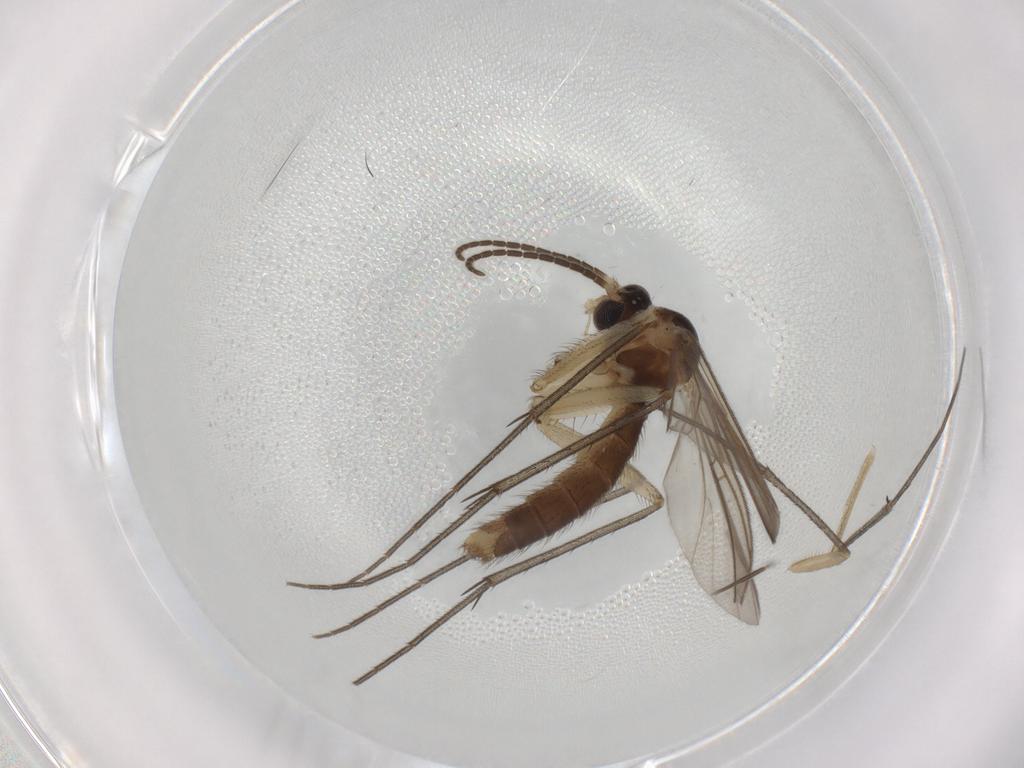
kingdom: Animalia
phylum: Arthropoda
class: Insecta
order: Diptera
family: Mycetophilidae
